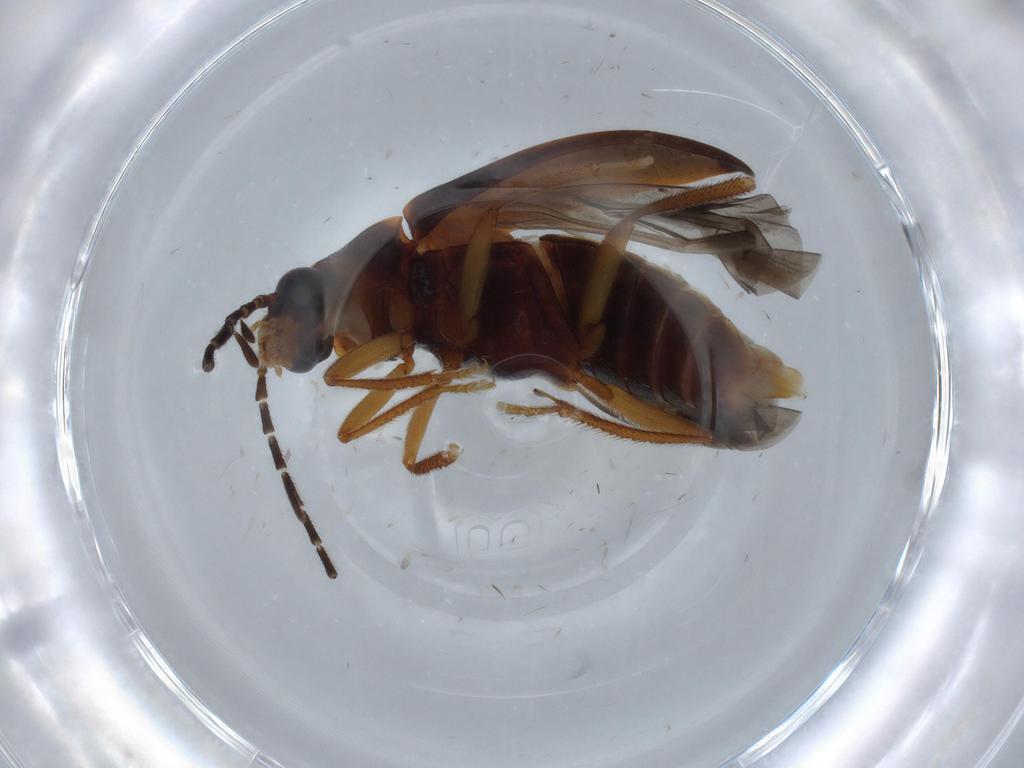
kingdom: Animalia
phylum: Arthropoda
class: Insecta
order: Coleoptera
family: Ptilodactylidae
